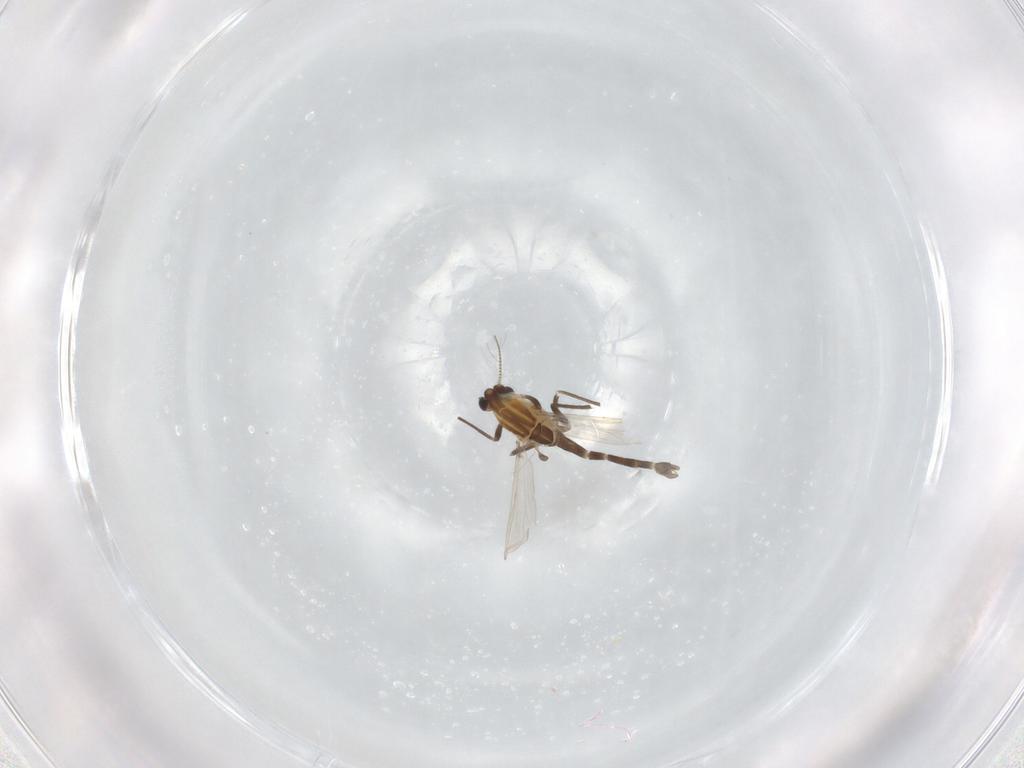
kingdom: Animalia
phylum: Arthropoda
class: Insecta
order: Diptera
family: Chironomidae
